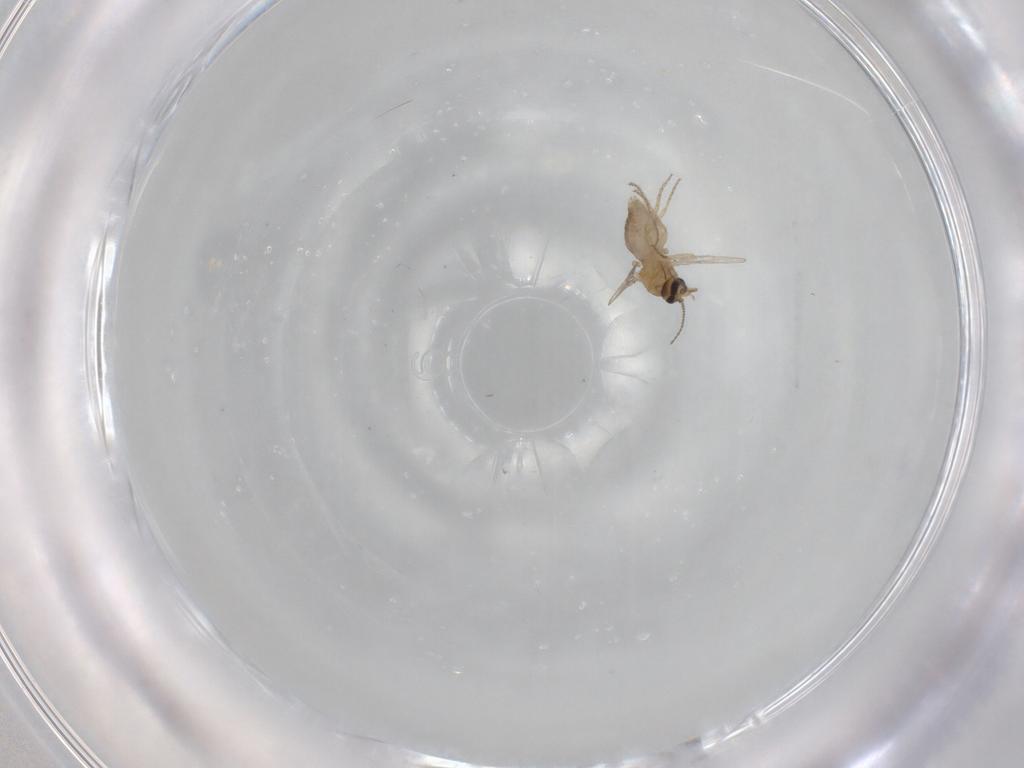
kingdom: Animalia
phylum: Arthropoda
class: Insecta
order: Diptera
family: Ceratopogonidae
